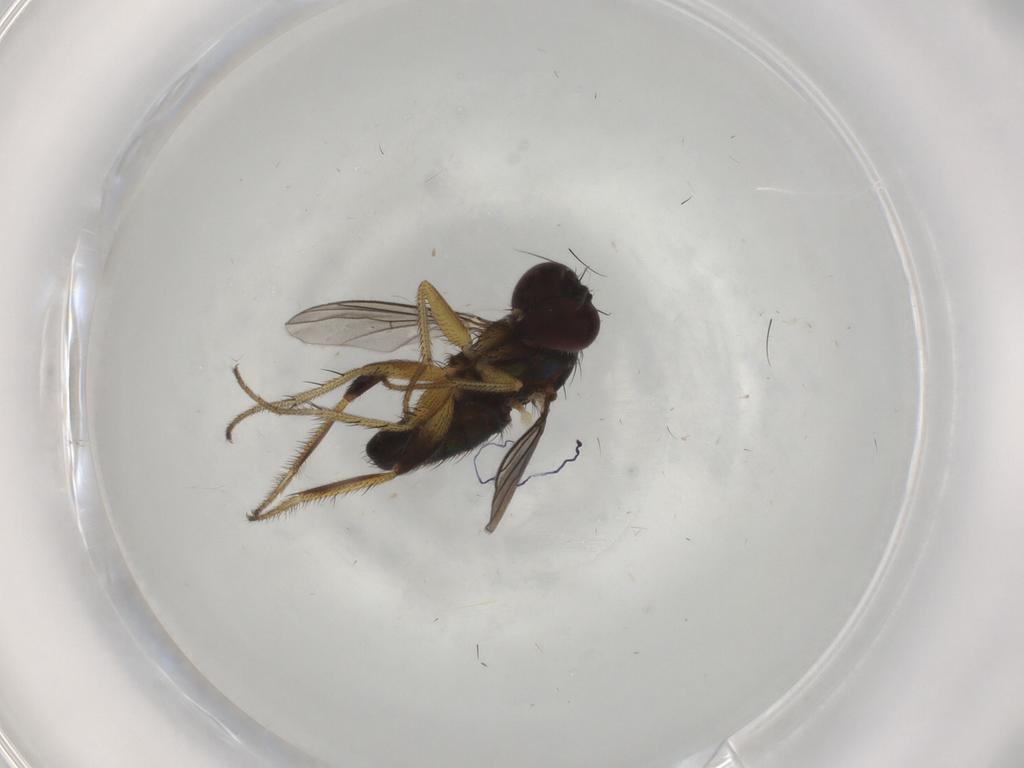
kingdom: Animalia
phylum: Arthropoda
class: Insecta
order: Diptera
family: Dolichopodidae
